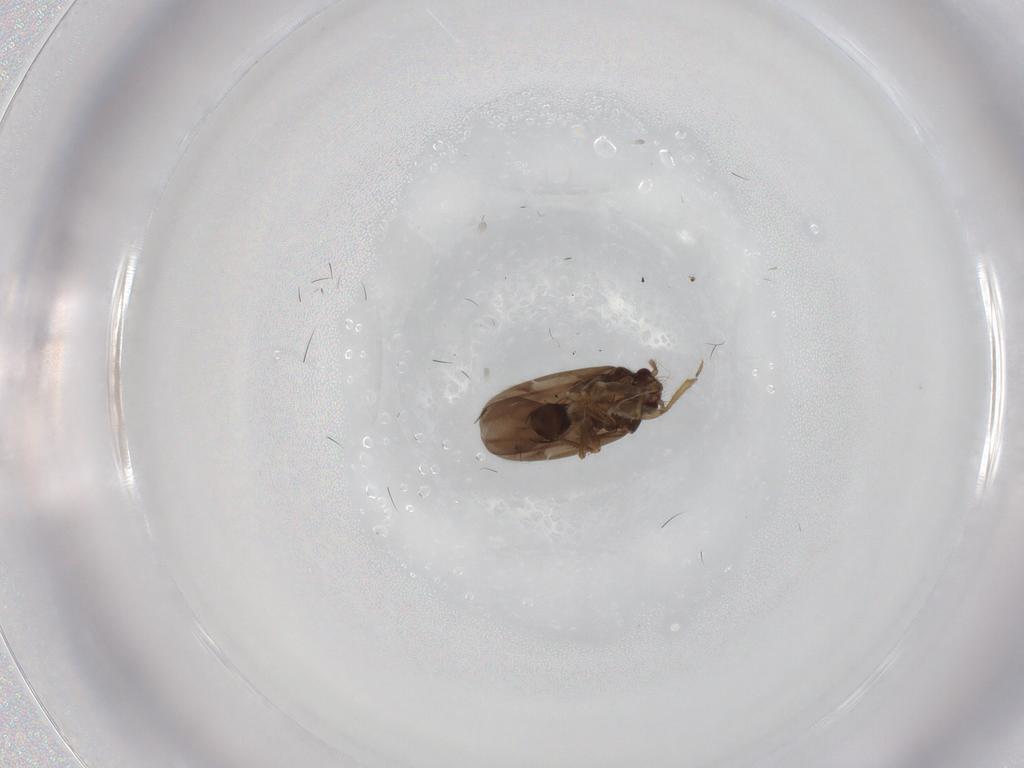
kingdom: Animalia
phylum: Arthropoda
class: Insecta
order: Hemiptera
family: Ceratocombidae
